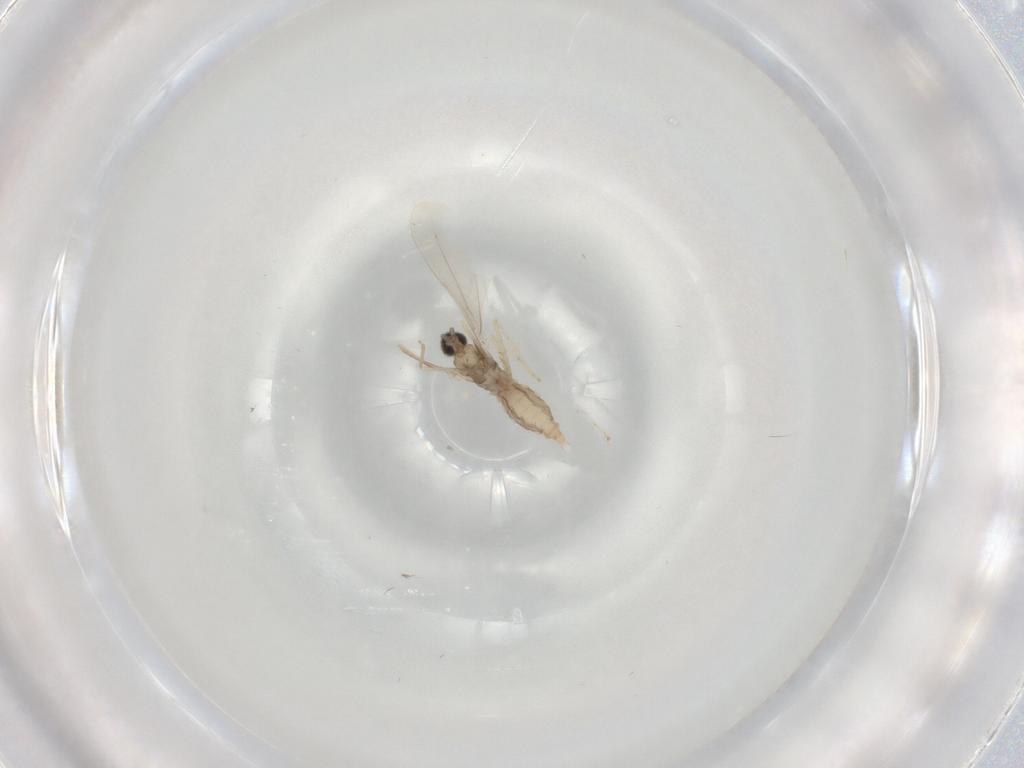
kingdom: Animalia
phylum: Arthropoda
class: Insecta
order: Diptera
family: Cecidomyiidae
